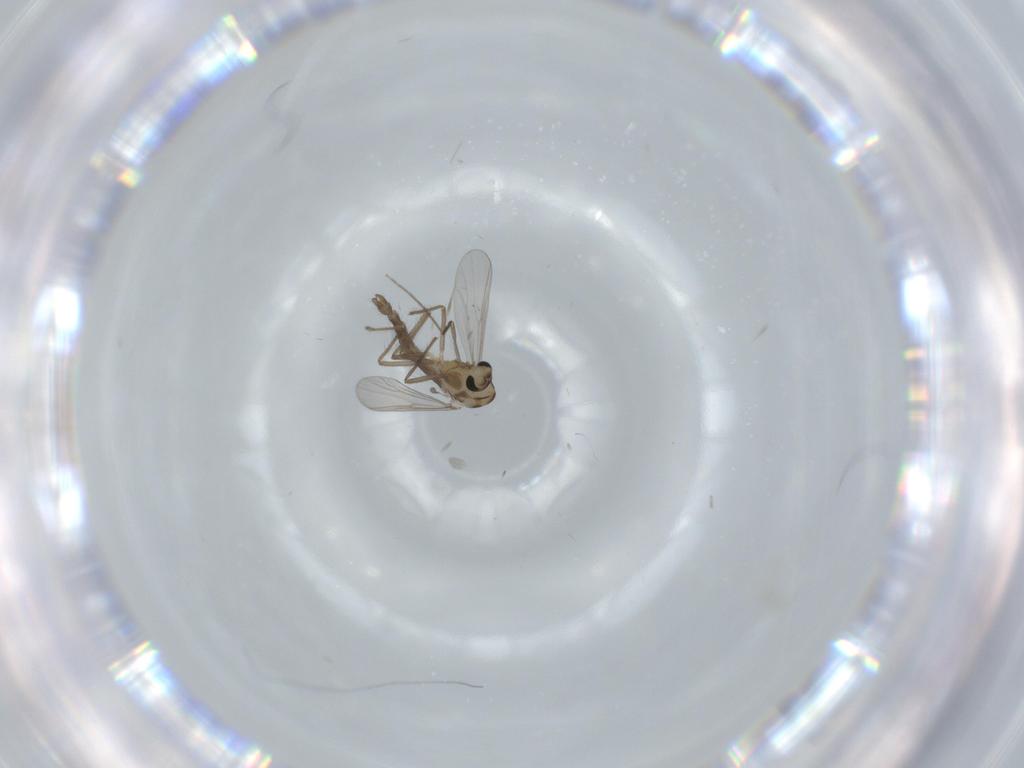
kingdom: Animalia
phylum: Arthropoda
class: Insecta
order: Diptera
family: Chironomidae
